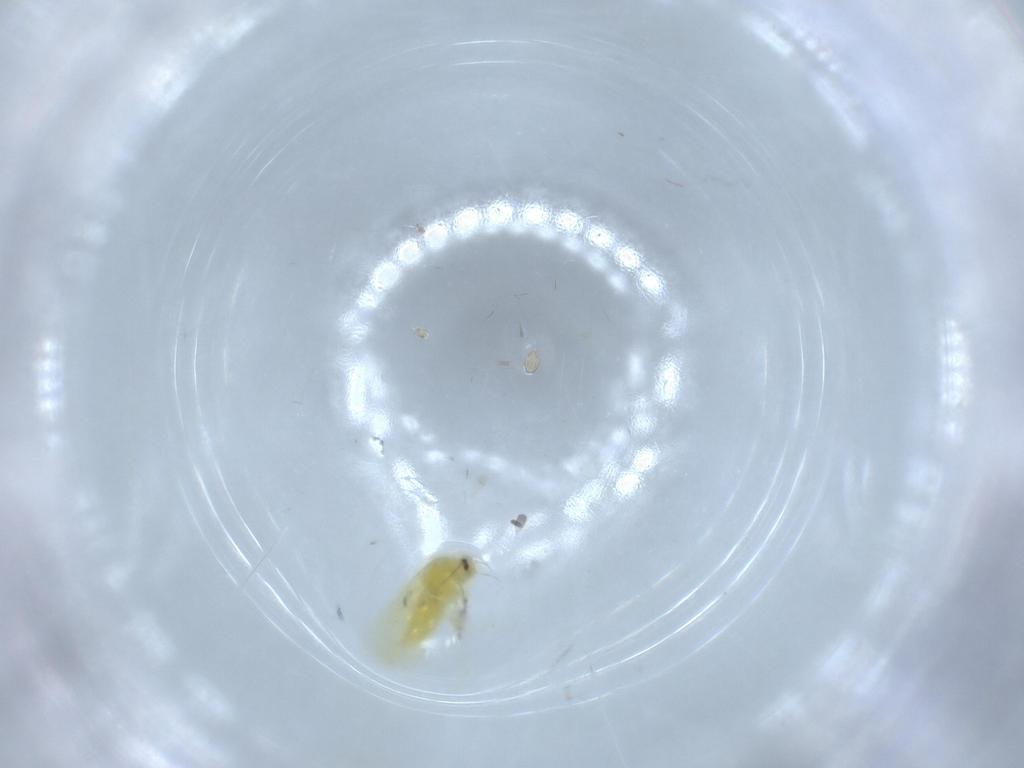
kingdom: Animalia
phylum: Arthropoda
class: Insecta
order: Hemiptera
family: Aleyrodidae
